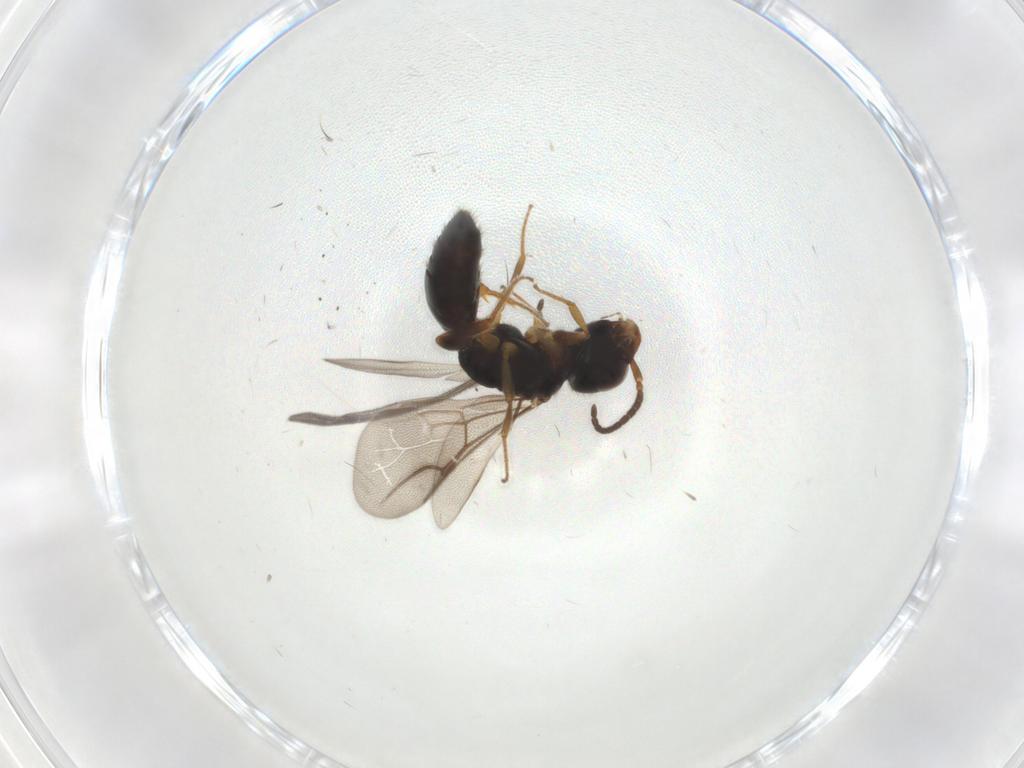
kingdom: Animalia
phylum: Arthropoda
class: Insecta
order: Hymenoptera
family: Bethylidae
